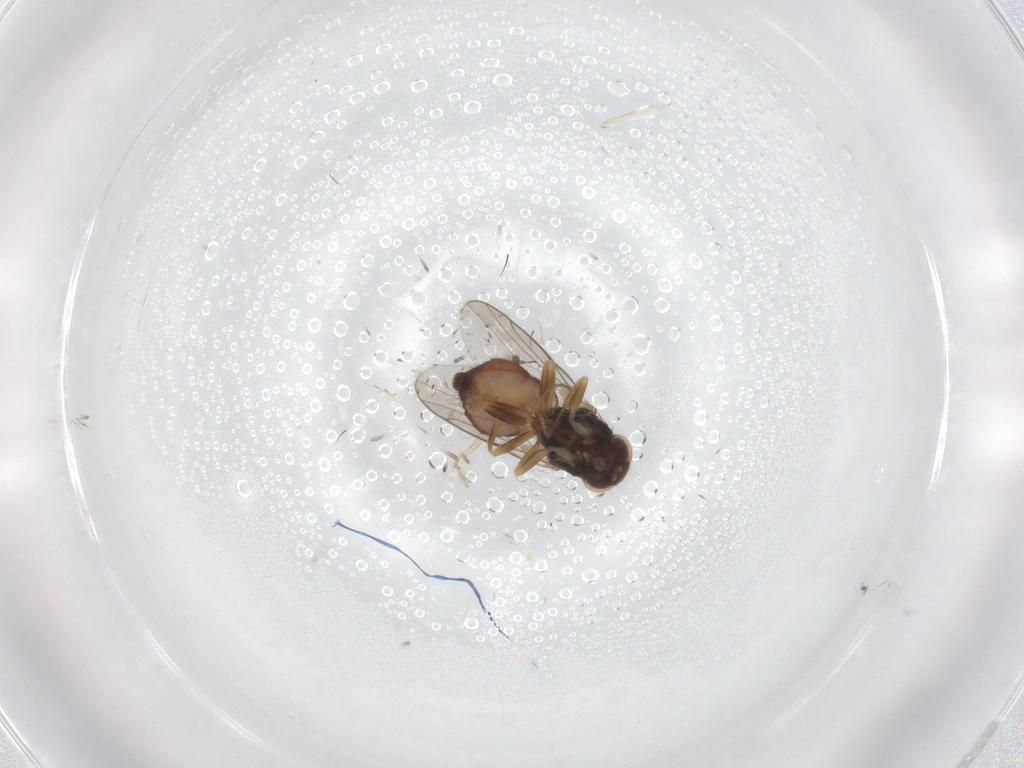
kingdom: Animalia
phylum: Arthropoda
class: Insecta
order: Diptera
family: Chloropidae
